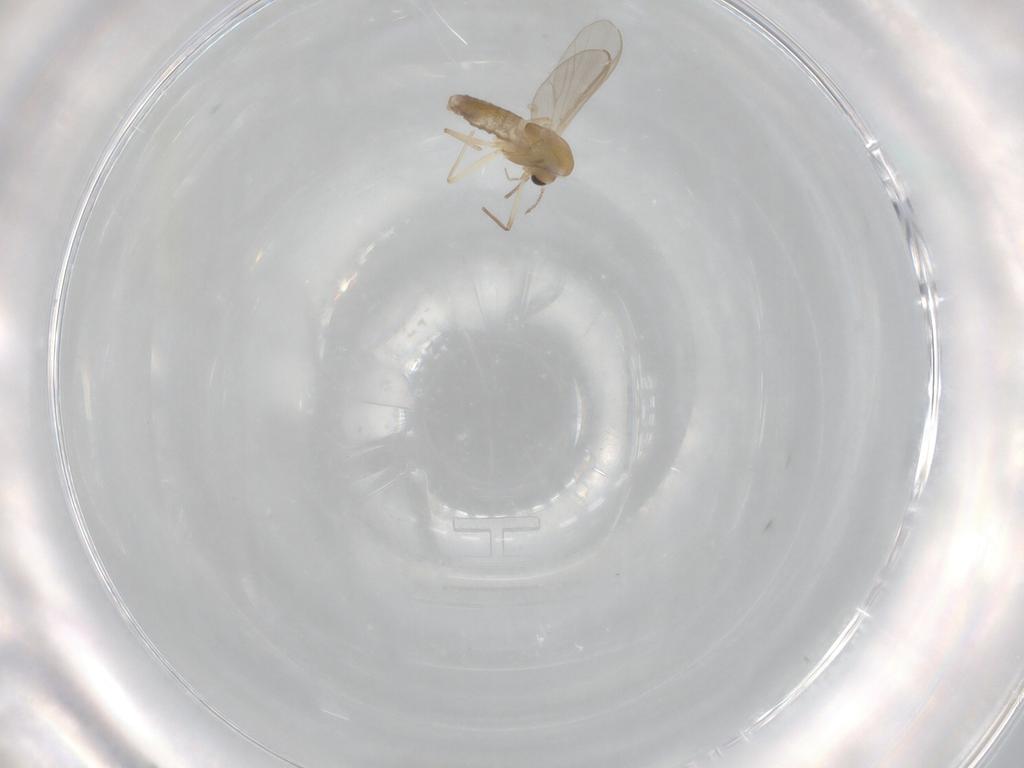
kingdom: Animalia
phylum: Arthropoda
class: Insecta
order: Diptera
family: Chironomidae
